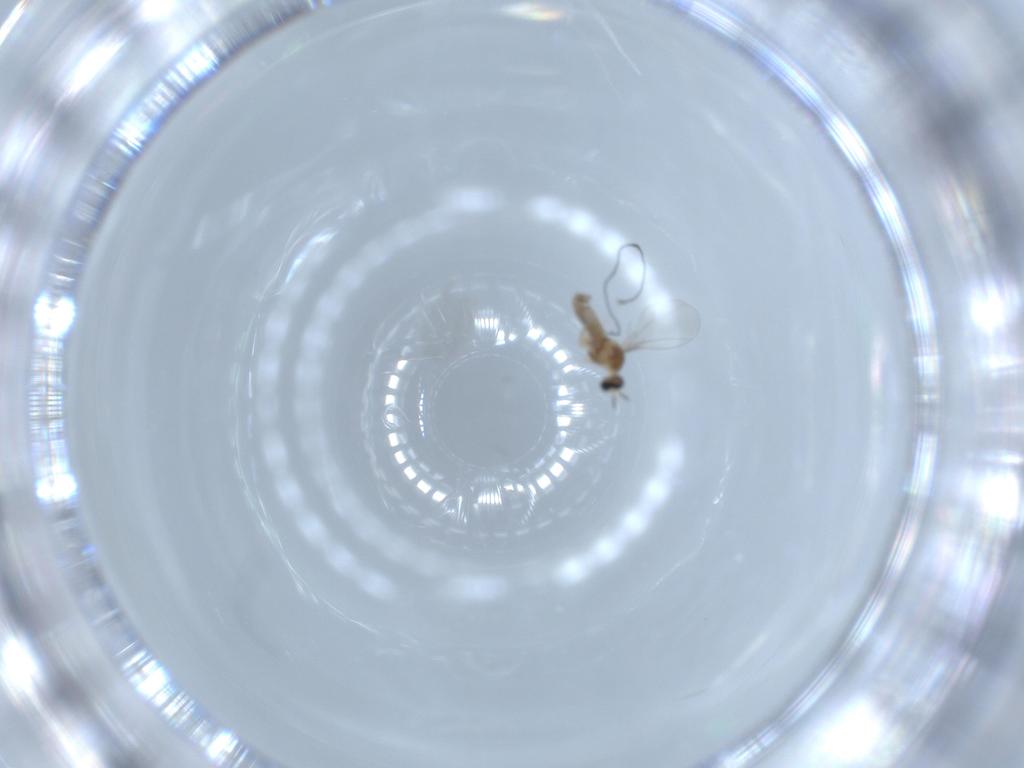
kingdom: Animalia
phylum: Arthropoda
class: Insecta
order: Diptera
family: Cecidomyiidae
